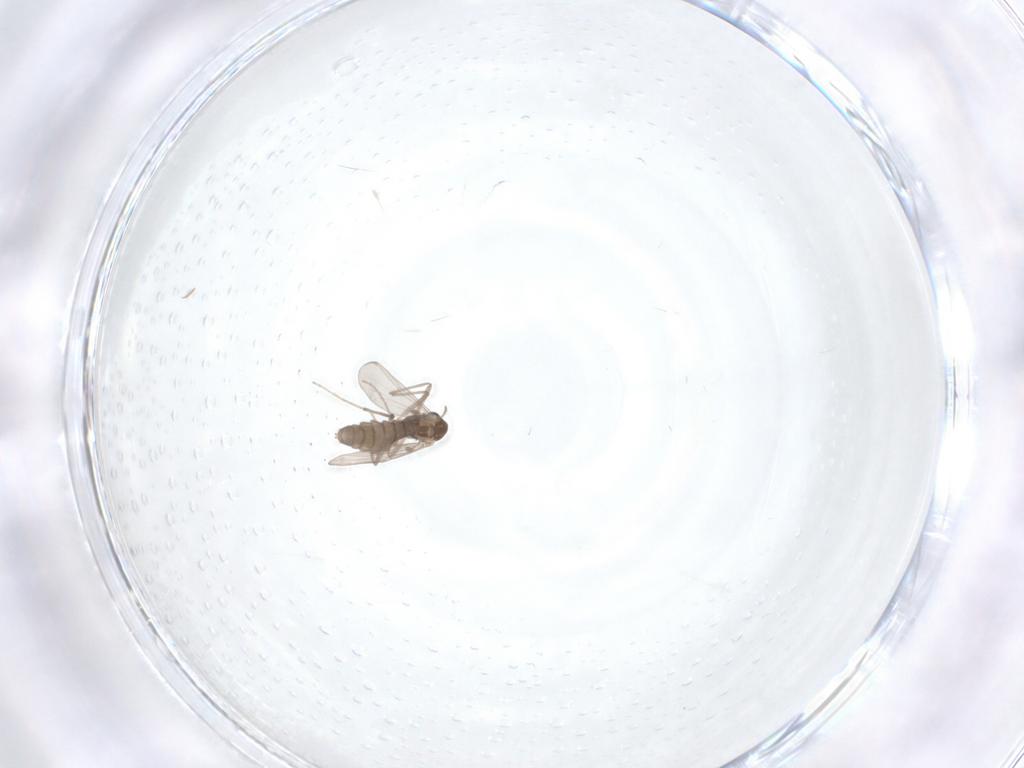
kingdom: Animalia
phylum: Arthropoda
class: Insecta
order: Diptera
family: Chironomidae
